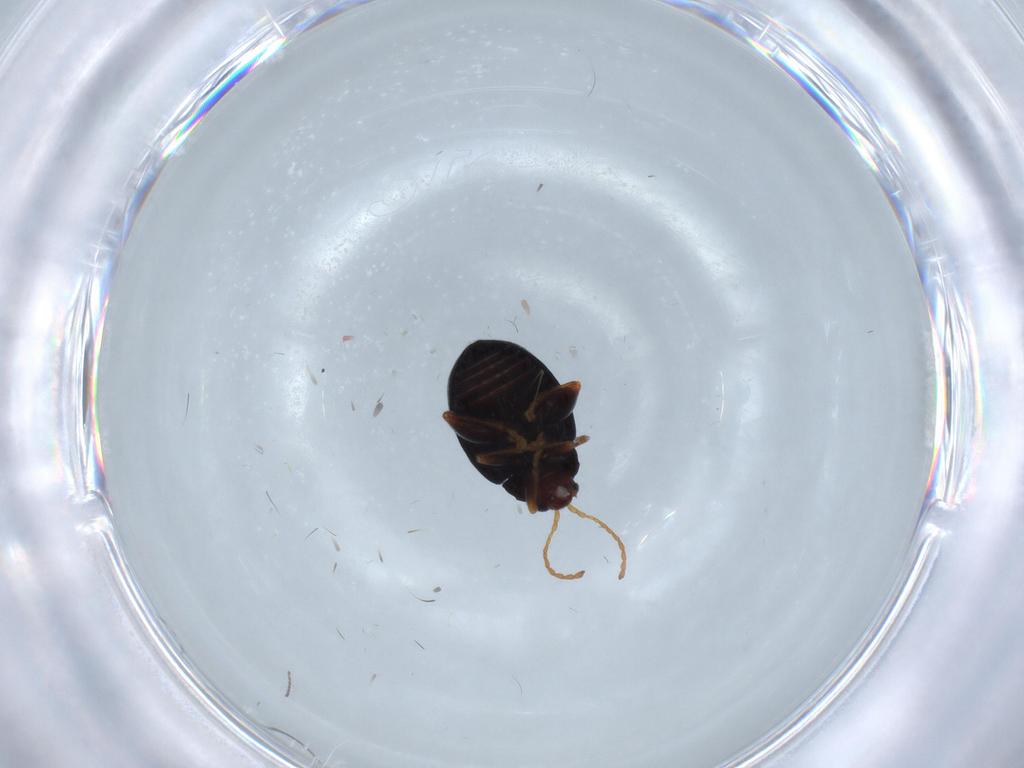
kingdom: Animalia
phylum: Arthropoda
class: Insecta
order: Coleoptera
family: Chrysomelidae
